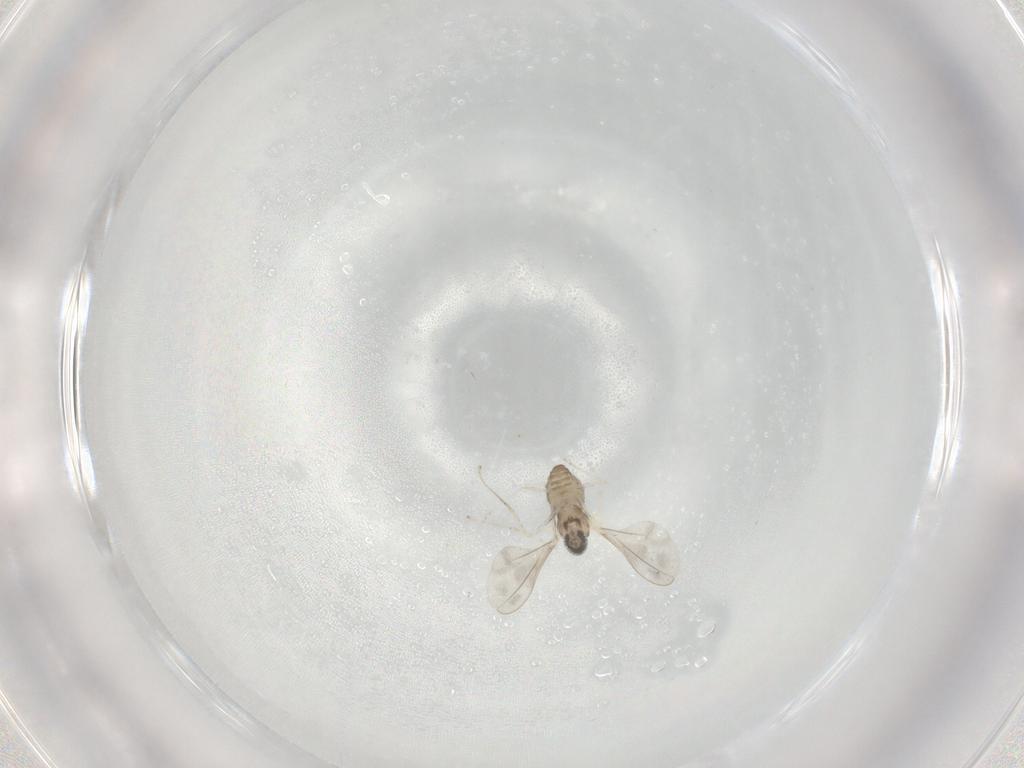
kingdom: Animalia
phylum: Arthropoda
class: Insecta
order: Diptera
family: Cecidomyiidae
